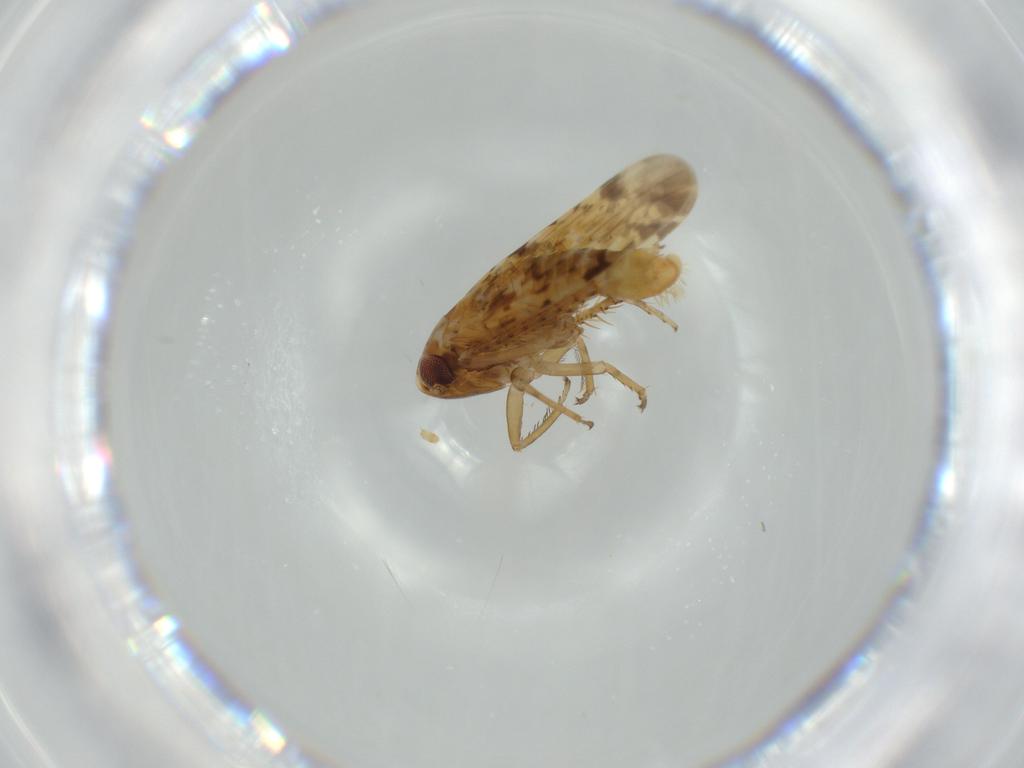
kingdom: Animalia
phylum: Arthropoda
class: Insecta
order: Hemiptera
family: Cicadellidae
